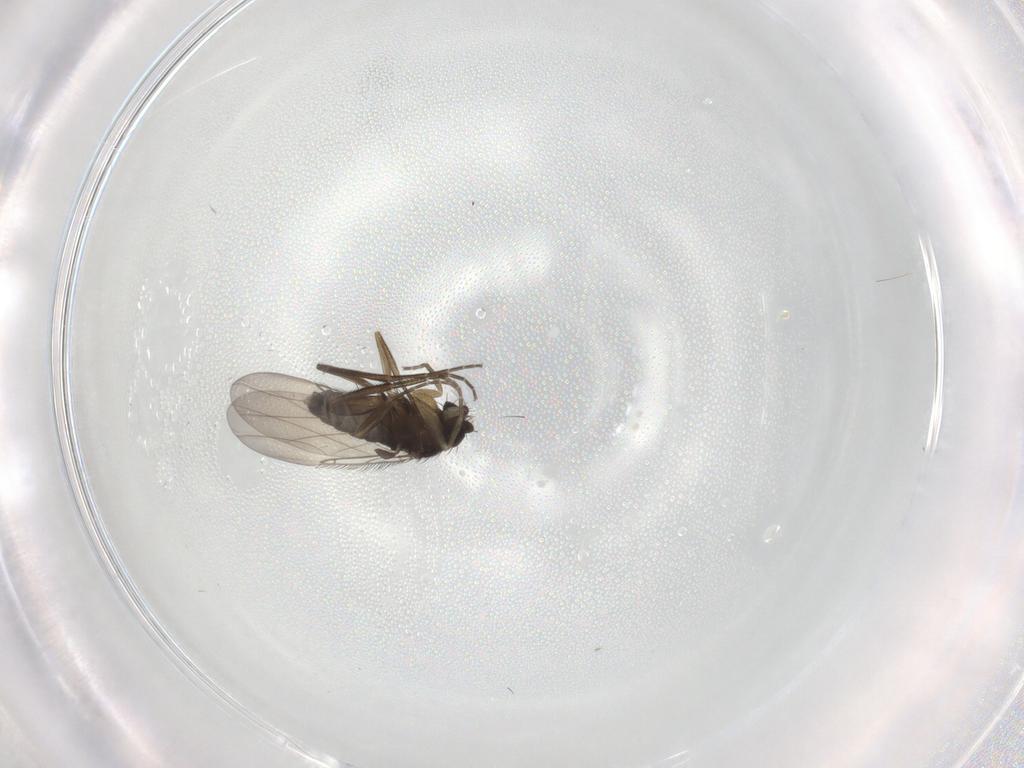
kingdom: Animalia
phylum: Arthropoda
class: Insecta
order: Diptera
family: Phoridae
